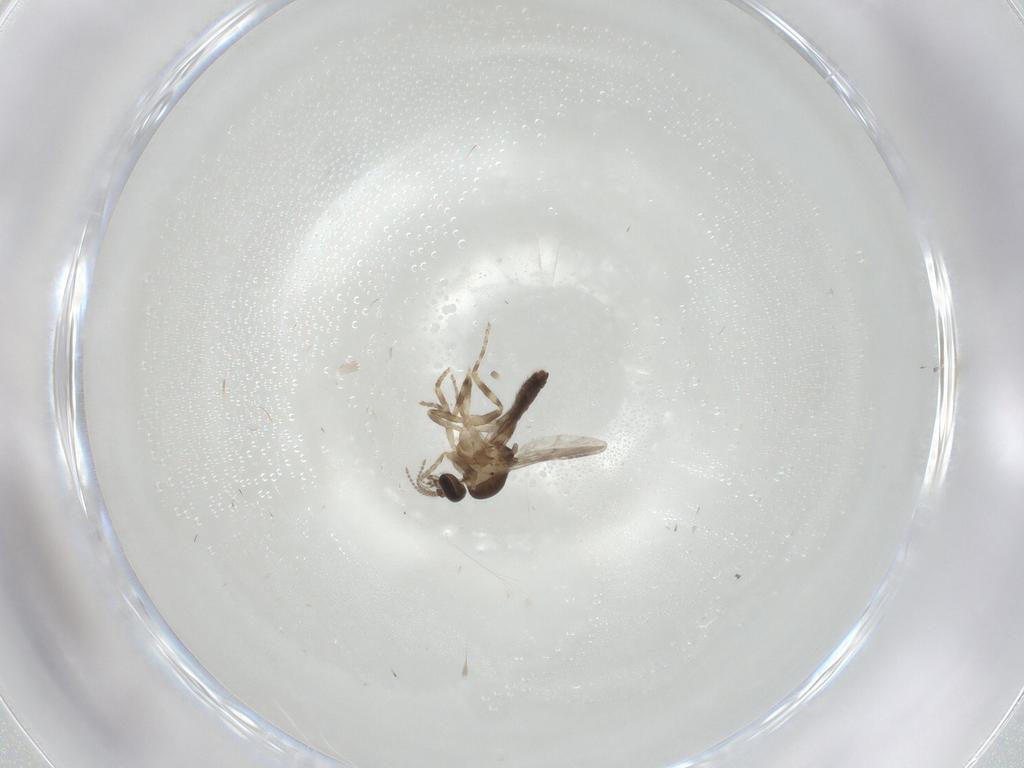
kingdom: Animalia
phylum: Arthropoda
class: Insecta
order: Diptera
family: Ceratopogonidae
